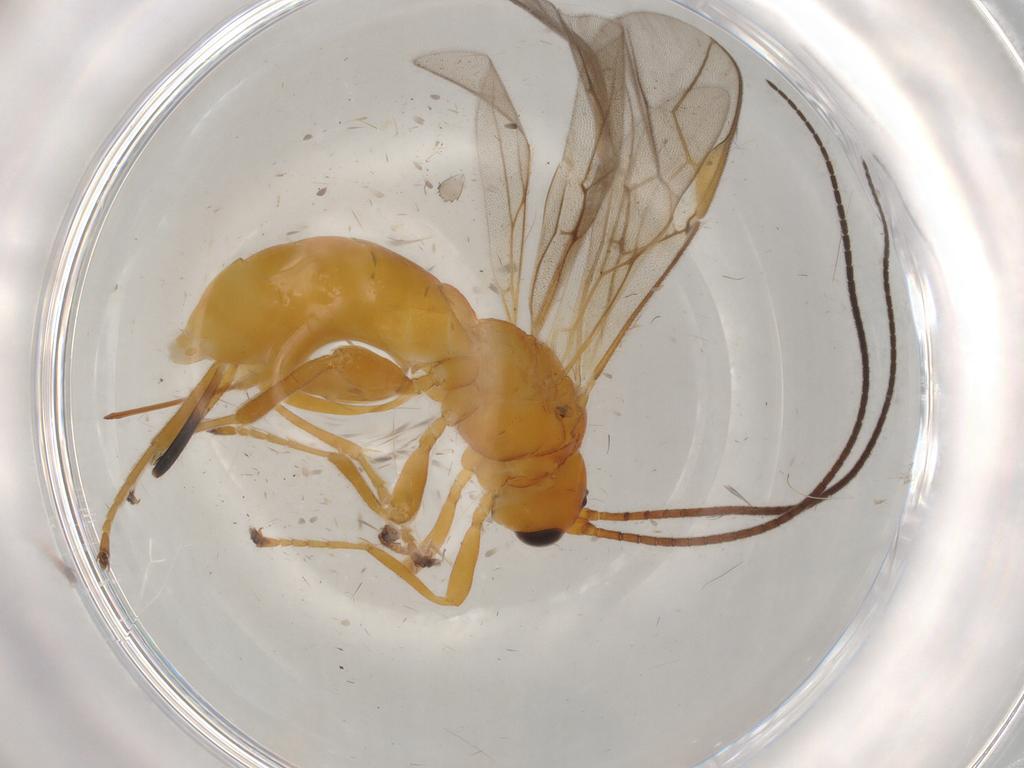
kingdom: Animalia
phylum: Arthropoda
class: Insecta
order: Hymenoptera
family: Braconidae
